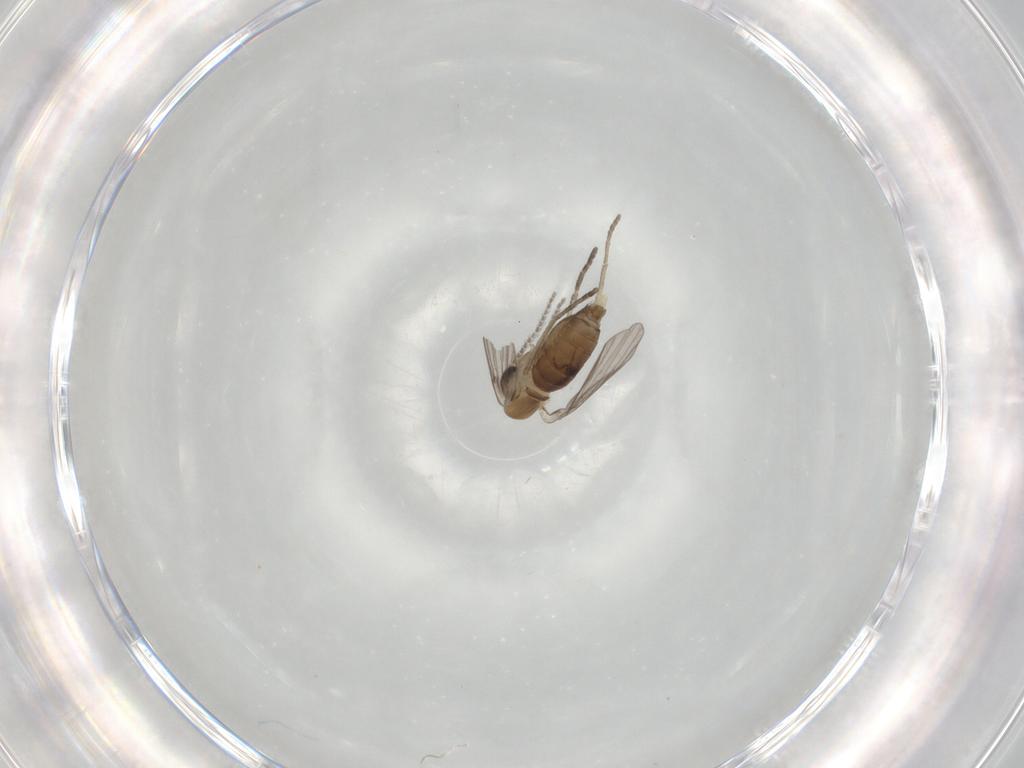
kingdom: Animalia
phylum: Arthropoda
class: Insecta
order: Diptera
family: Psychodidae
